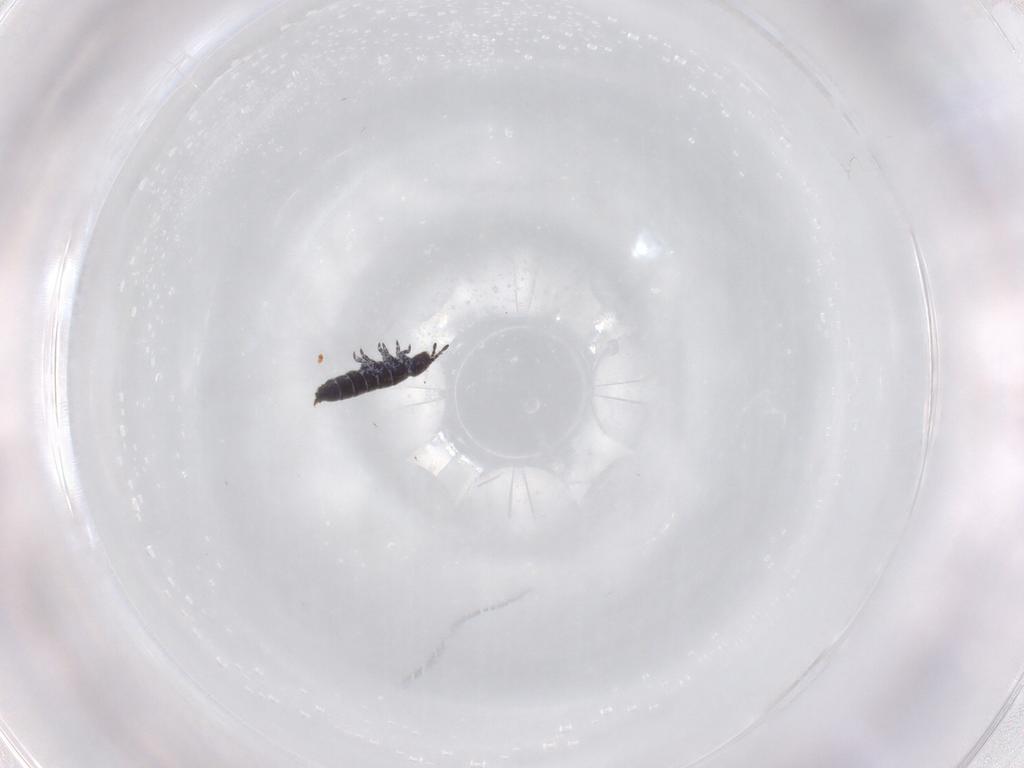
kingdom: Animalia
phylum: Arthropoda
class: Collembola
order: Entomobryomorpha
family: Isotomidae
